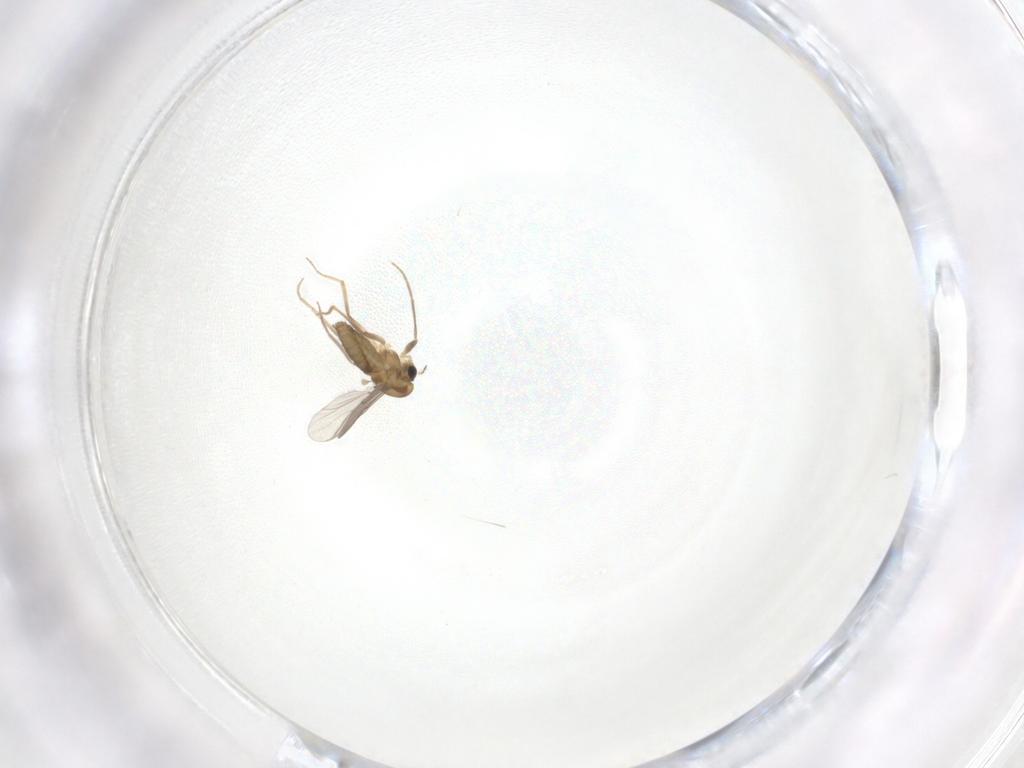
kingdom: Animalia
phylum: Arthropoda
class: Insecta
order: Diptera
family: Chironomidae
